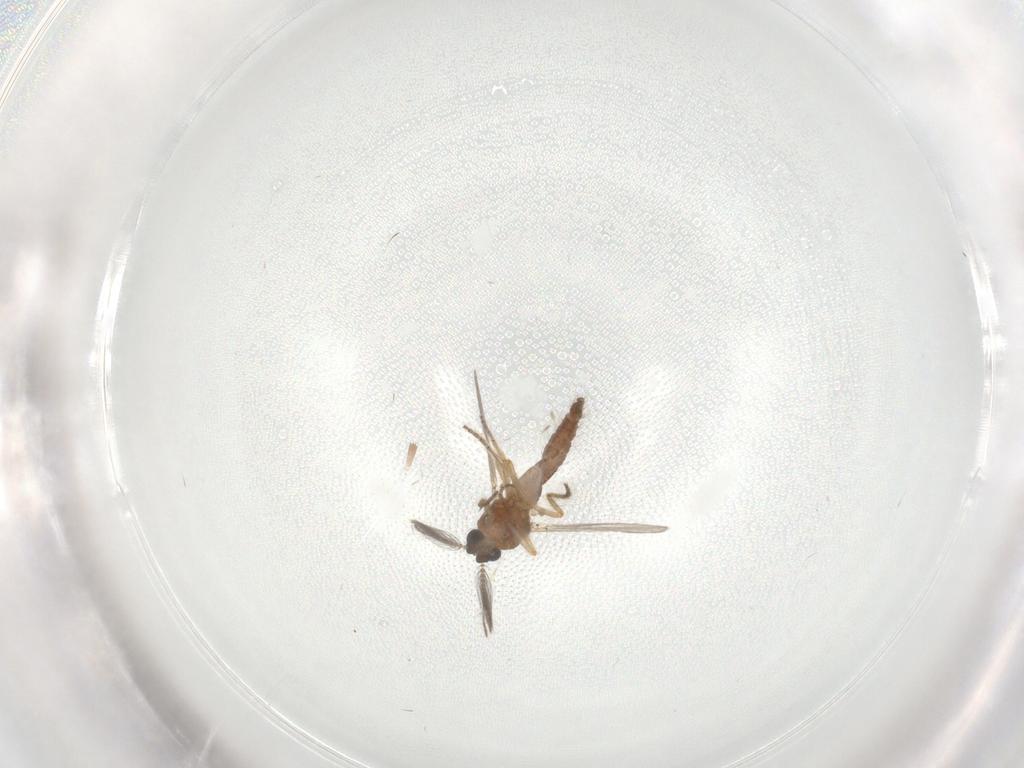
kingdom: Animalia
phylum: Arthropoda
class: Insecta
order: Diptera
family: Ceratopogonidae
